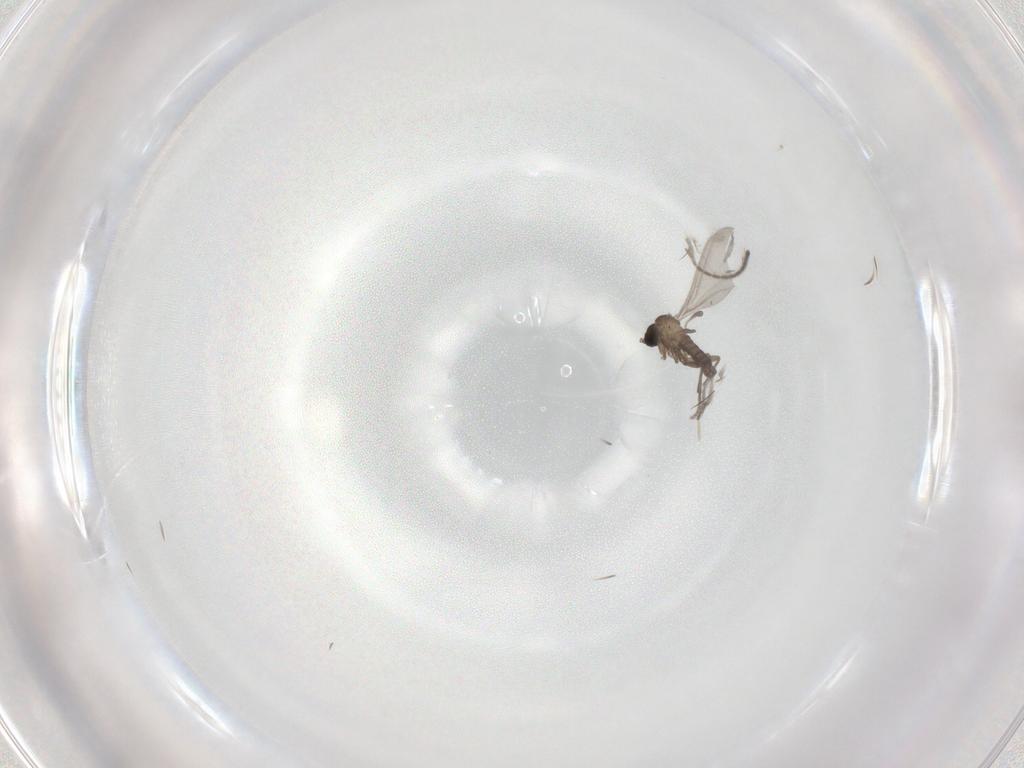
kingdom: Animalia
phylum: Arthropoda
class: Insecta
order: Diptera
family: Sciaridae
